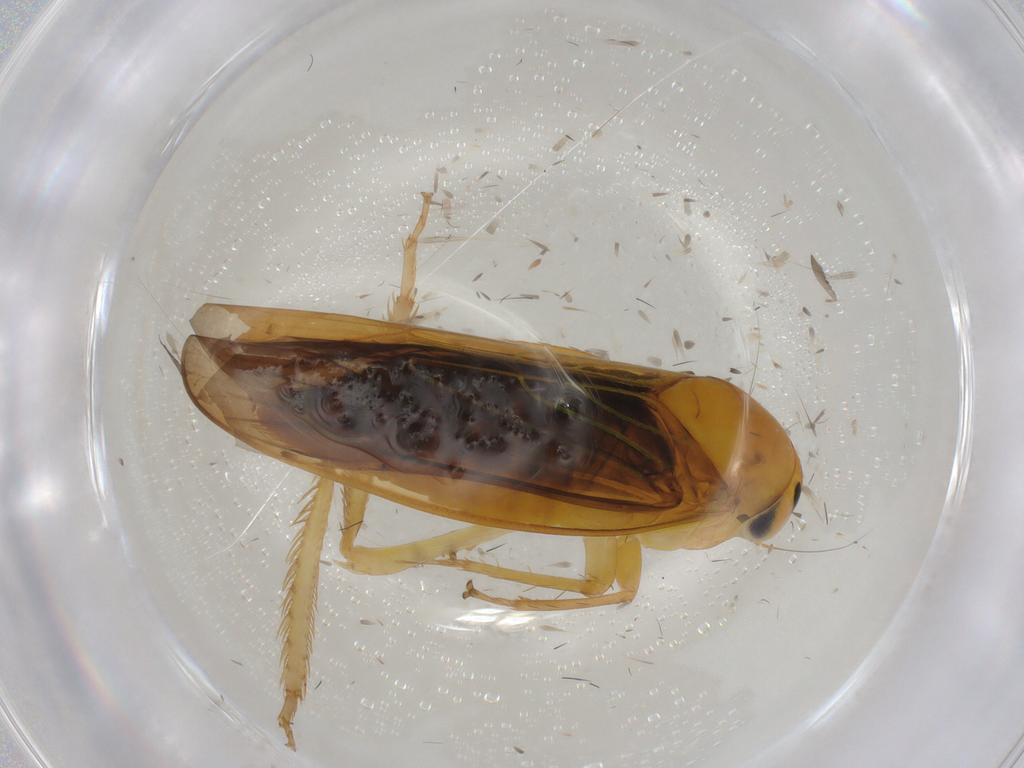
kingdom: Animalia
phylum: Arthropoda
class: Insecta
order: Hemiptera
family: Cicadellidae
